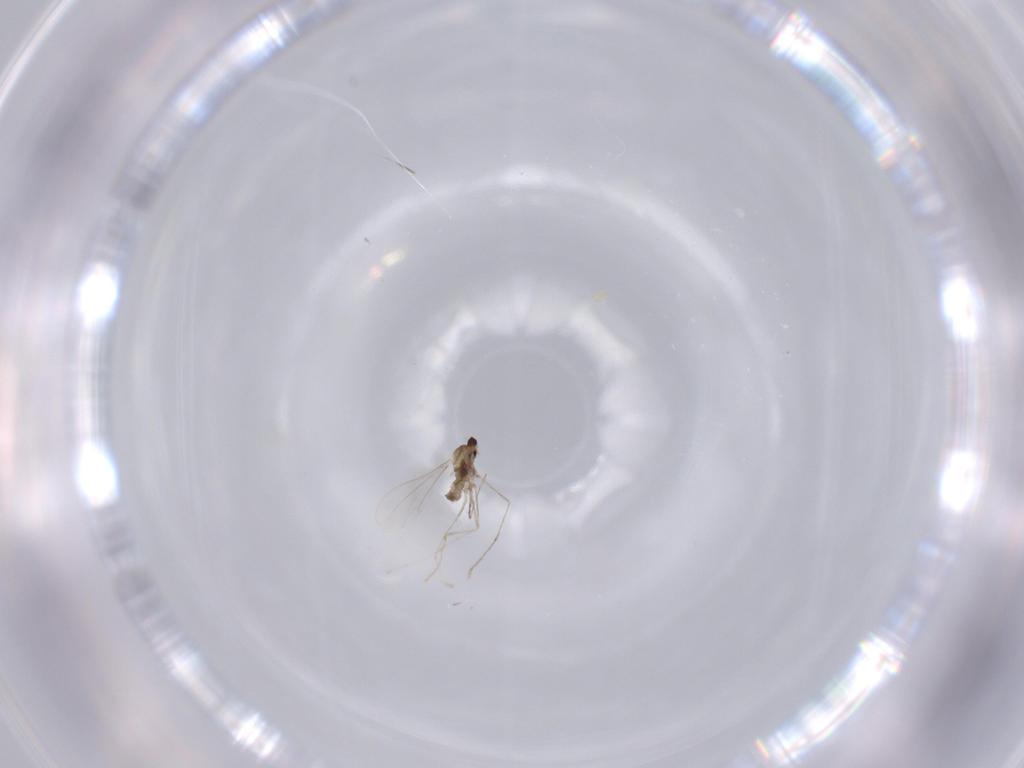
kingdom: Animalia
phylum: Arthropoda
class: Insecta
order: Diptera
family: Cecidomyiidae
